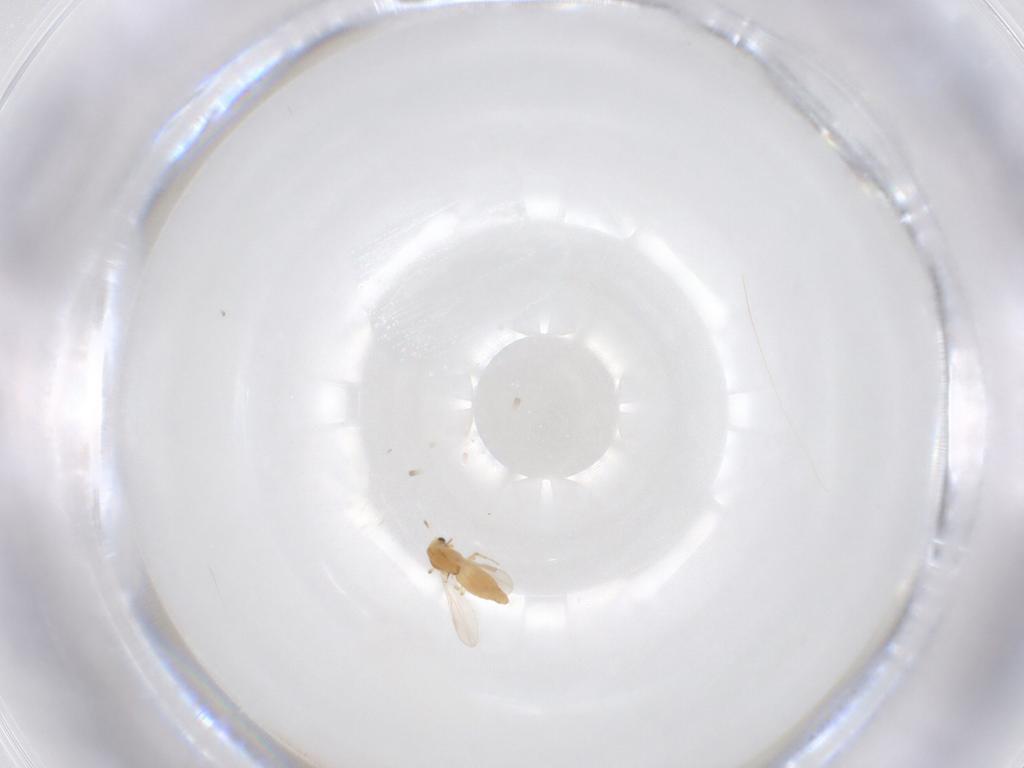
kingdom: Animalia
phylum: Arthropoda
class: Insecta
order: Diptera
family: Chironomidae
